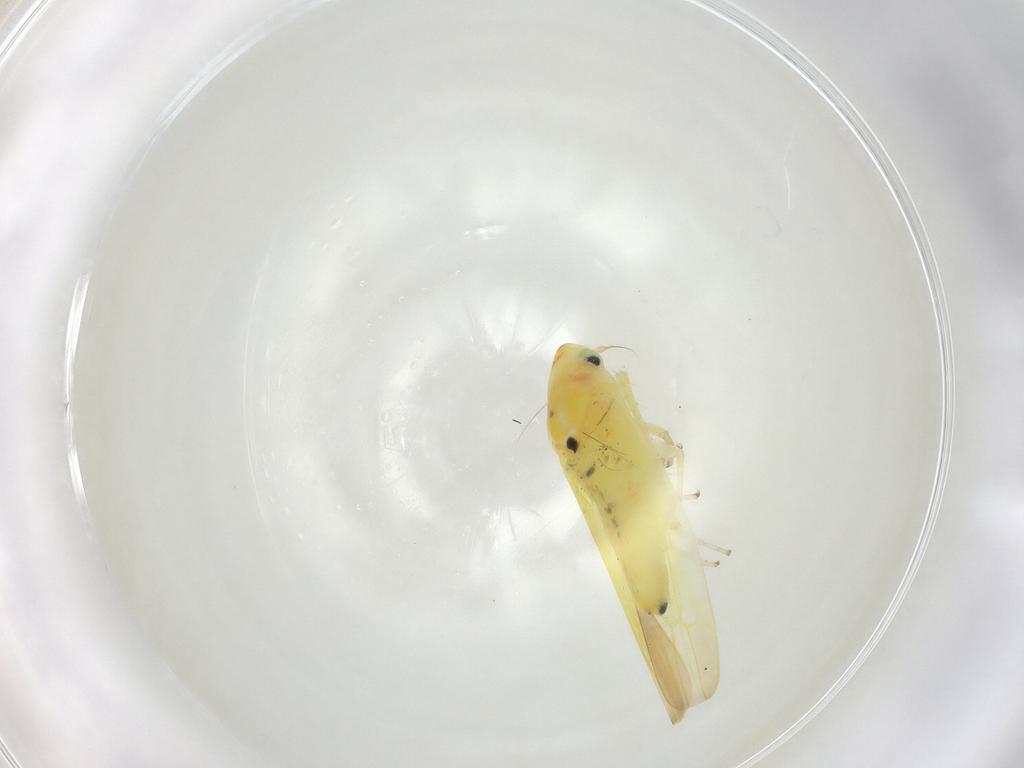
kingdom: Animalia
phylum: Arthropoda
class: Insecta
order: Hemiptera
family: Cicadellidae
